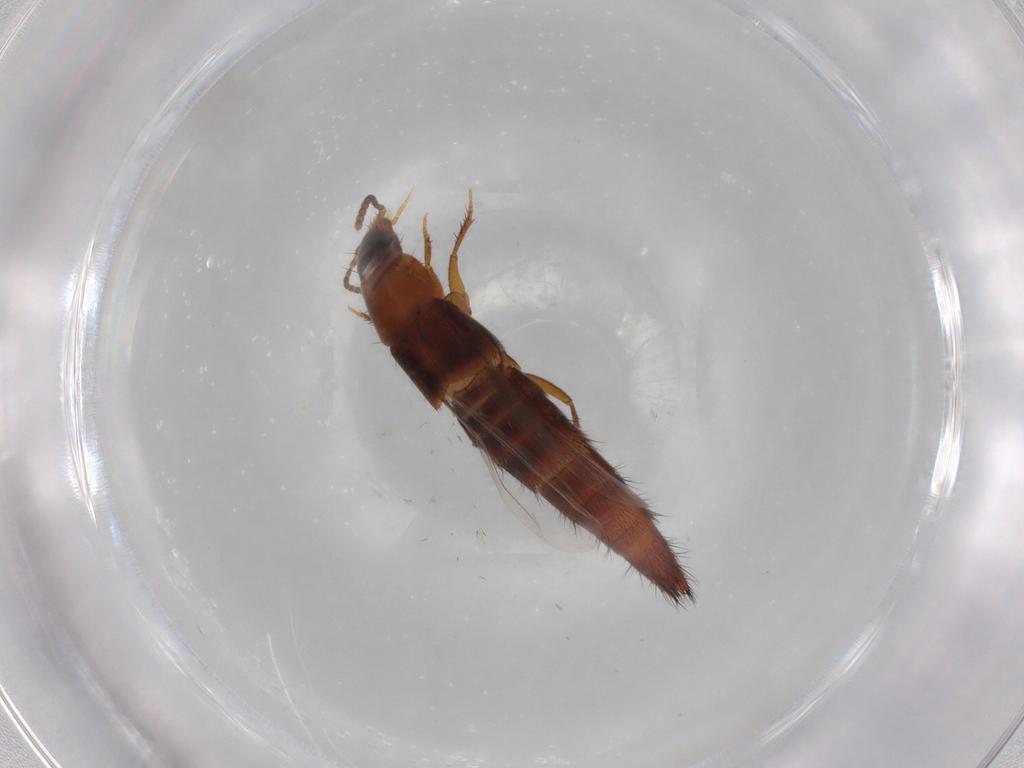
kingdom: Animalia
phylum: Arthropoda
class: Insecta
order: Coleoptera
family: Staphylinidae
